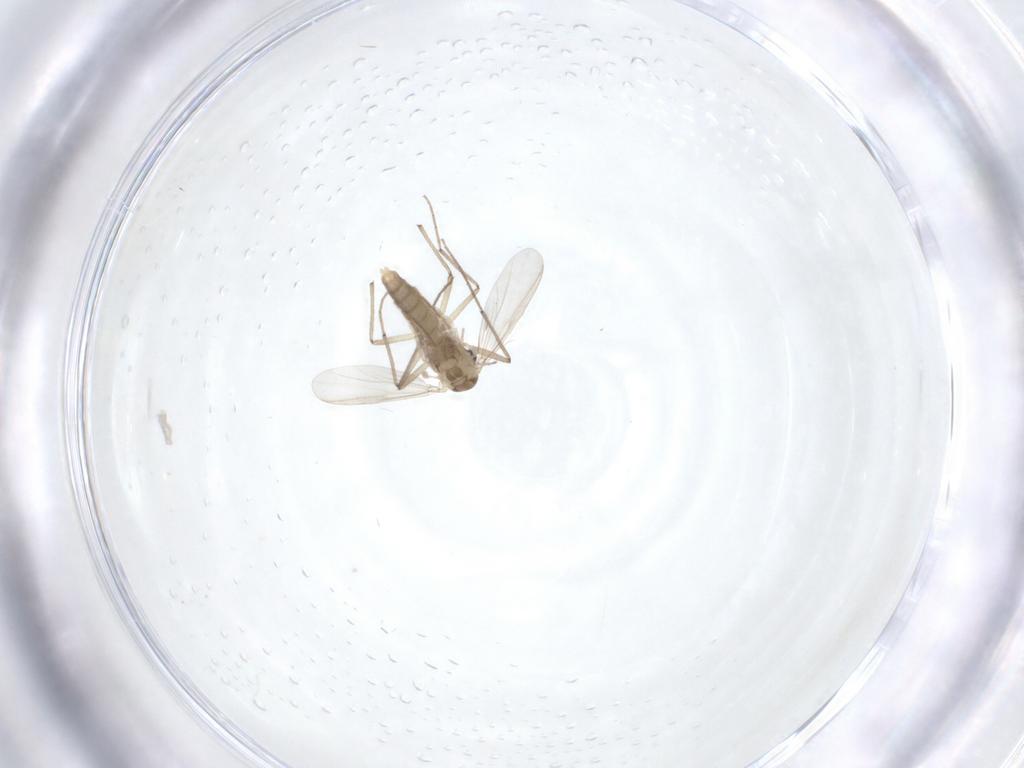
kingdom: Animalia
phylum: Arthropoda
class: Insecta
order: Diptera
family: Chironomidae
